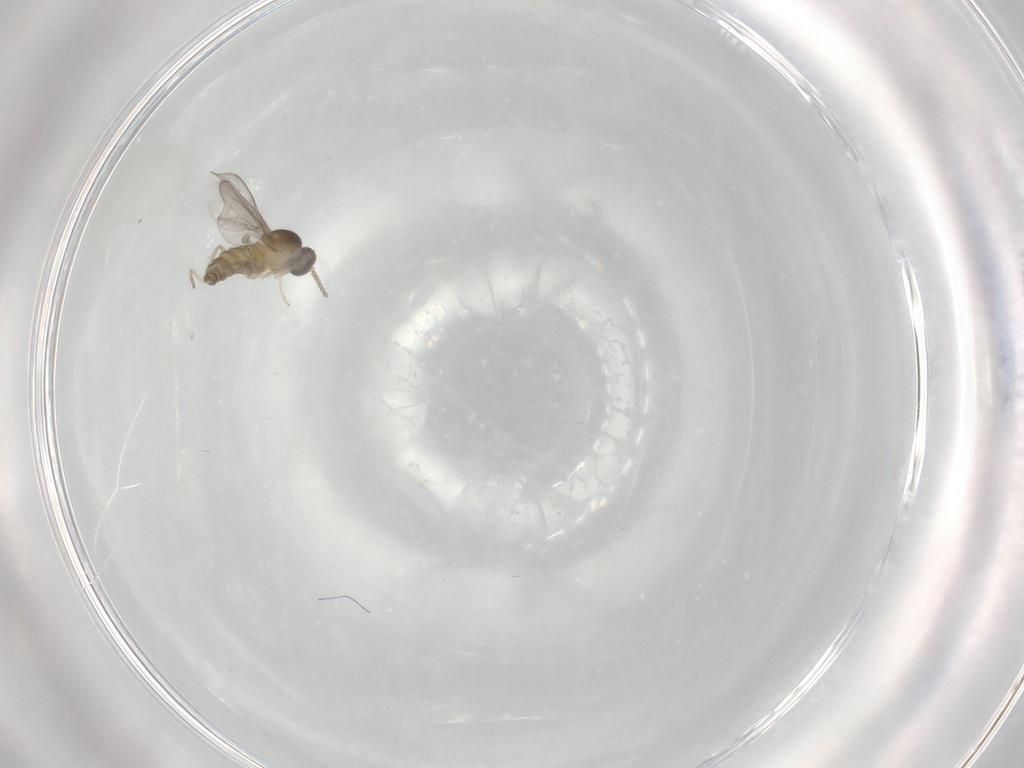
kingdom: Animalia
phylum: Arthropoda
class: Insecta
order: Diptera
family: Cecidomyiidae
